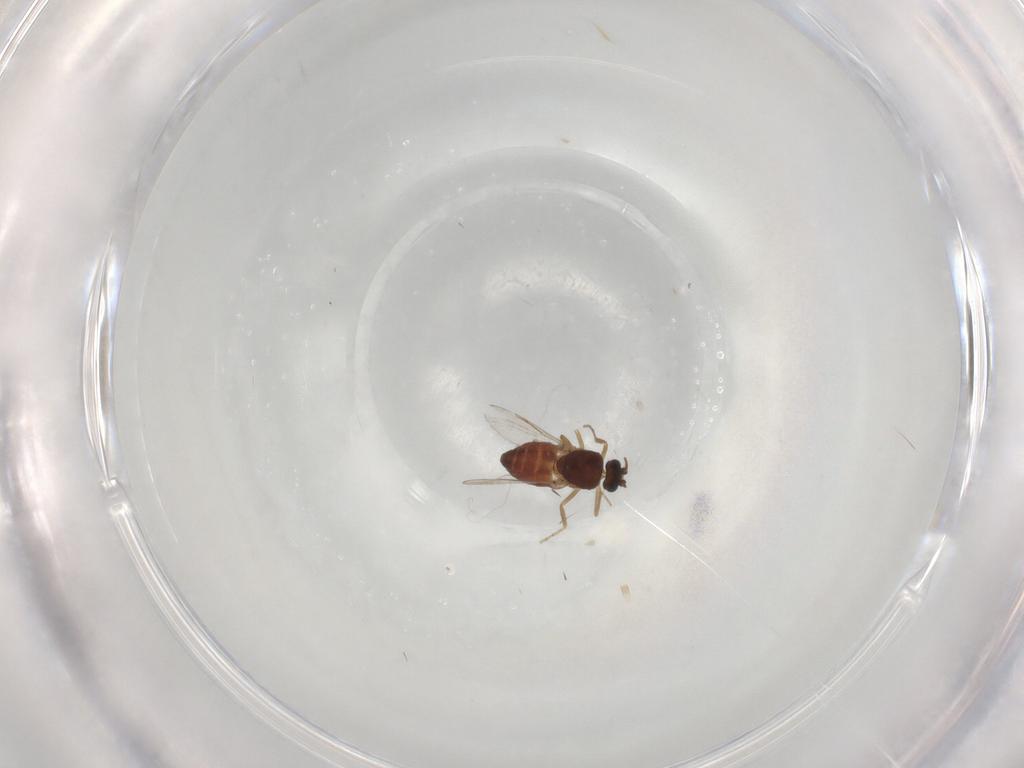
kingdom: Animalia
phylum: Arthropoda
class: Insecta
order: Diptera
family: Ceratopogonidae
